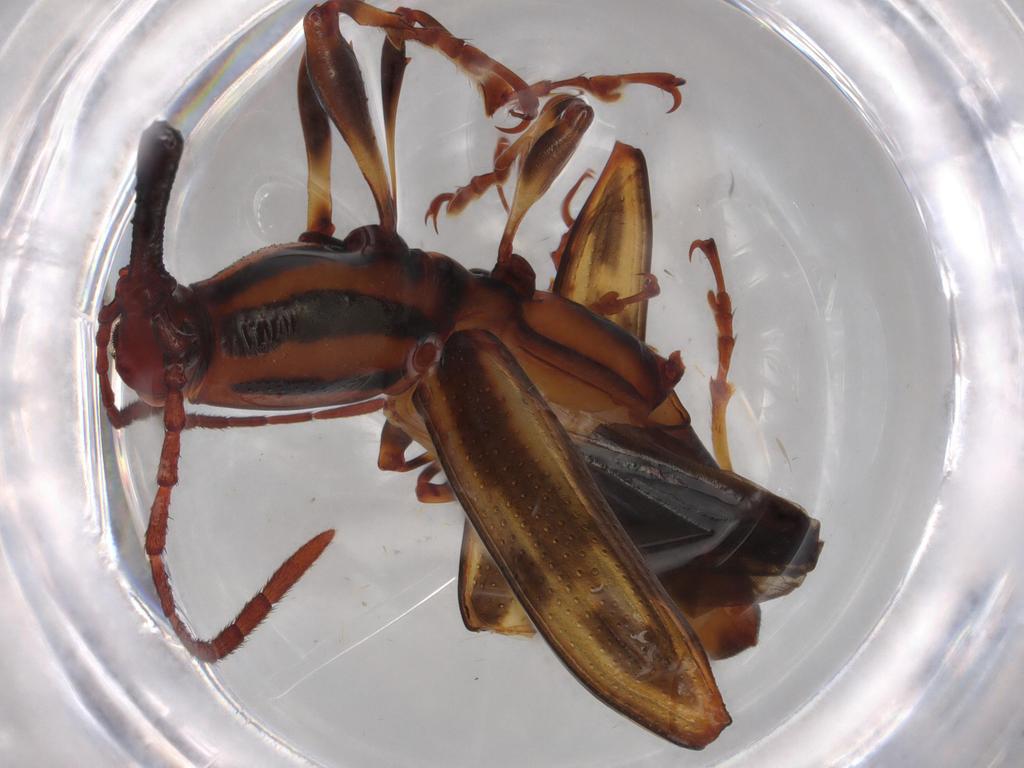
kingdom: Animalia
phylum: Arthropoda
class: Insecta
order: Coleoptera
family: Brentidae
